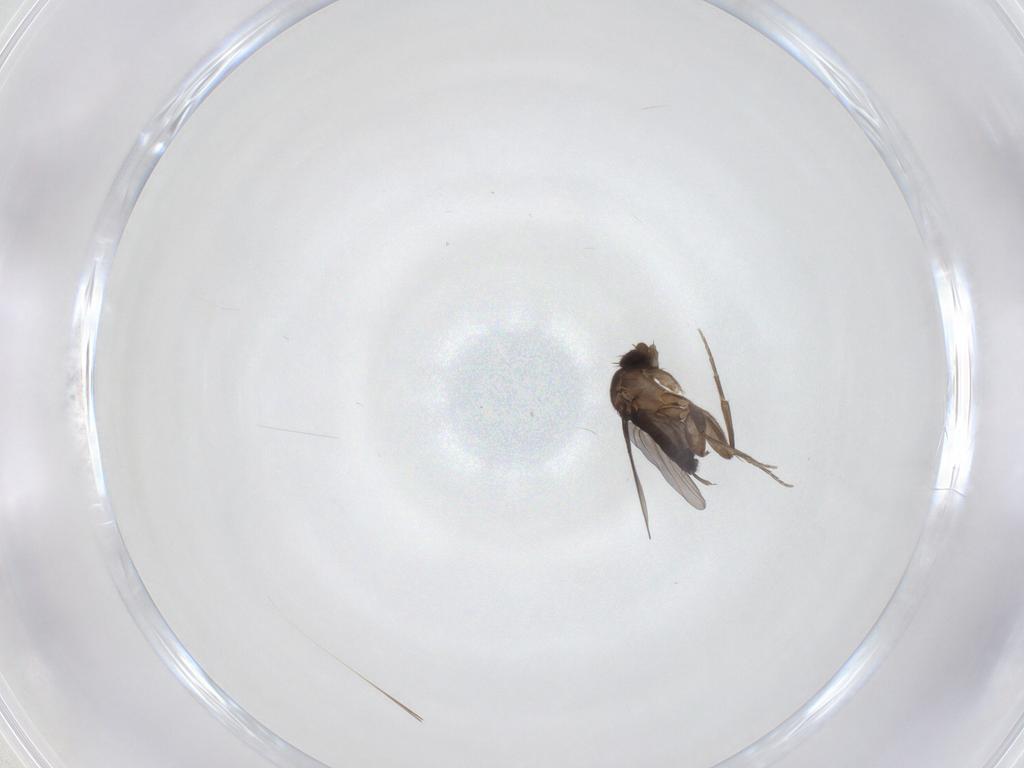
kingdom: Animalia
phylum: Arthropoda
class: Insecta
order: Diptera
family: Phoridae
